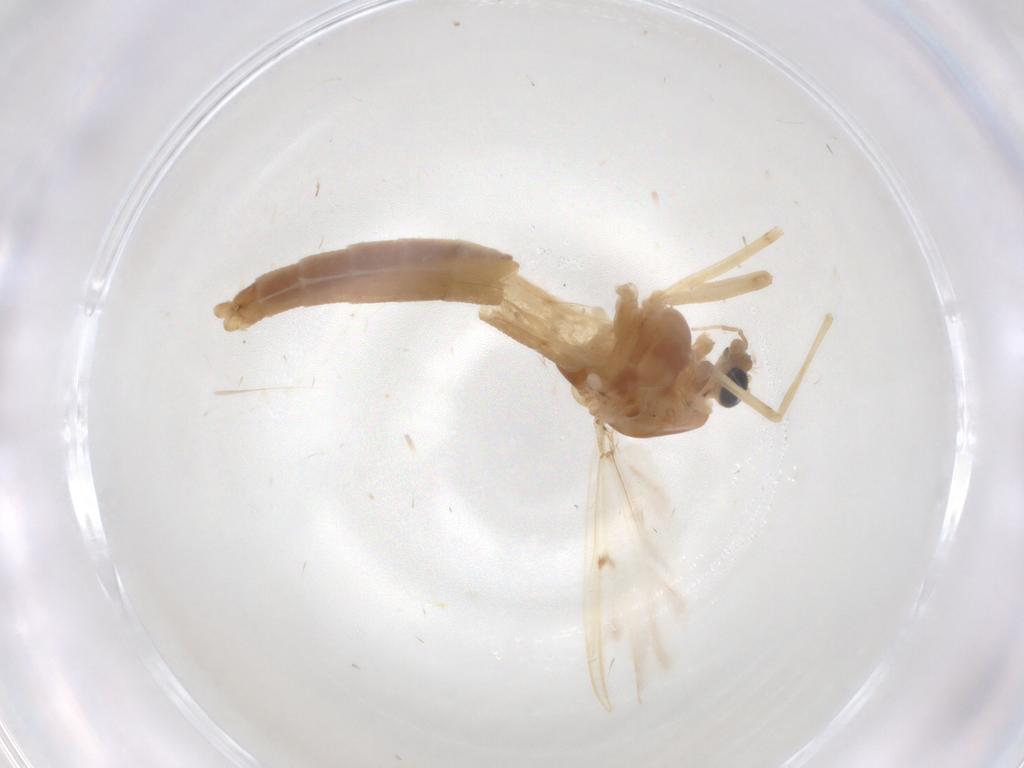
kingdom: Animalia
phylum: Arthropoda
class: Insecta
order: Diptera
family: Chironomidae
